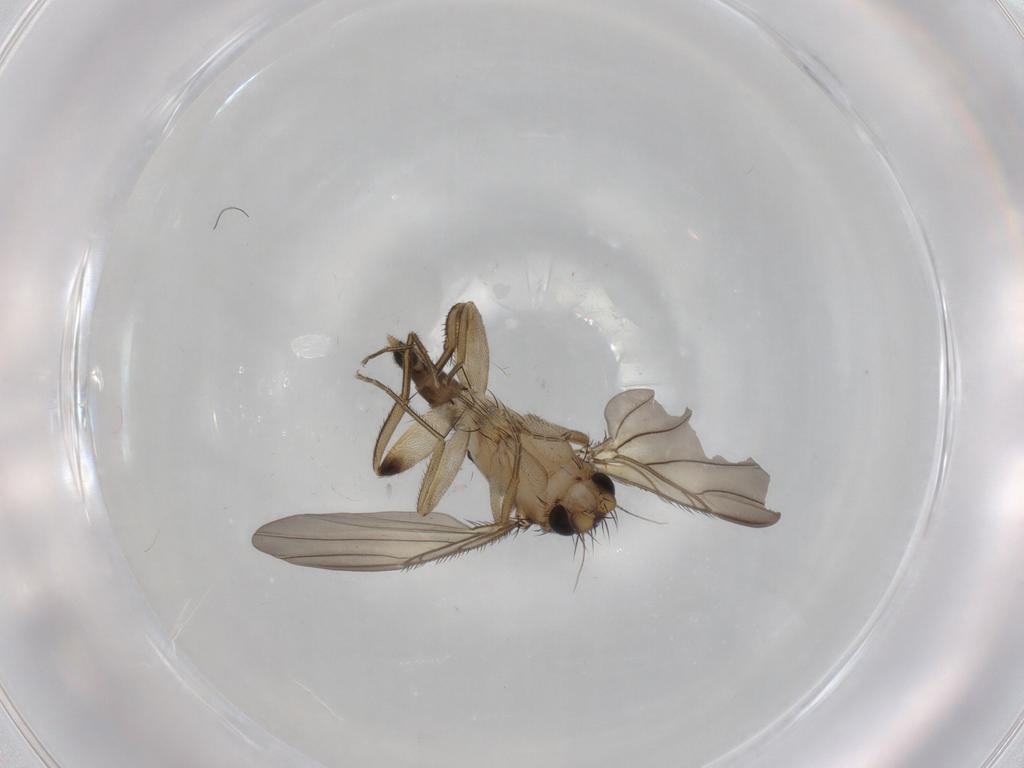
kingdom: Animalia
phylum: Arthropoda
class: Insecta
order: Diptera
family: Phoridae
